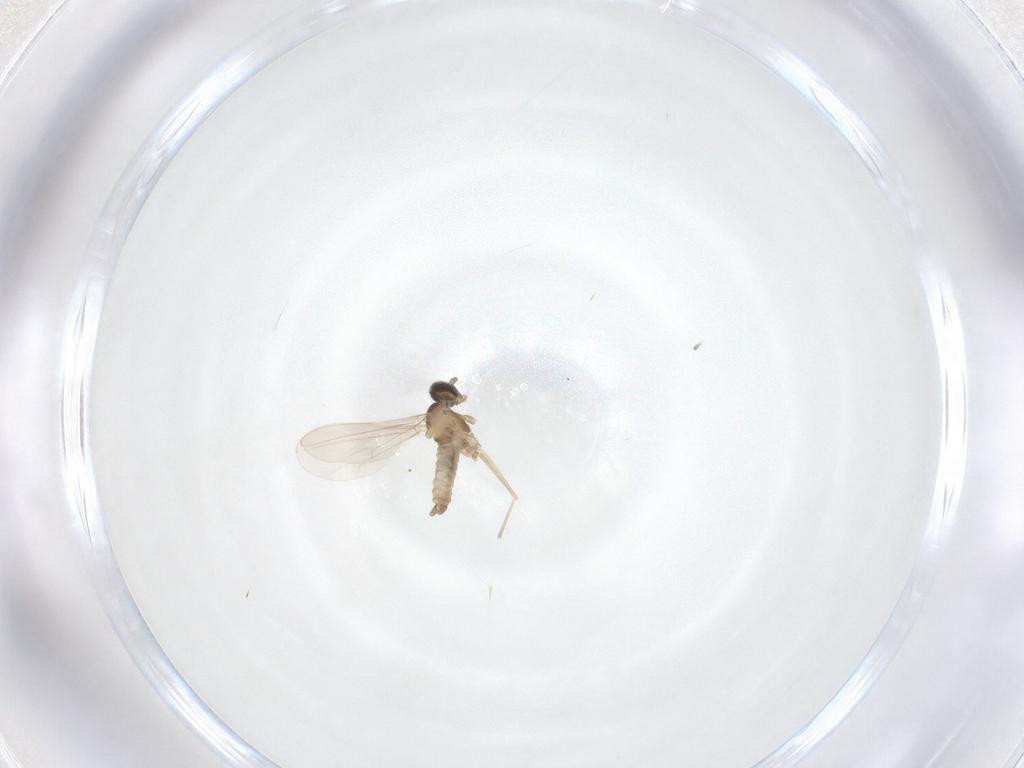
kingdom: Animalia
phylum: Arthropoda
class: Insecta
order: Diptera
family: Cecidomyiidae
